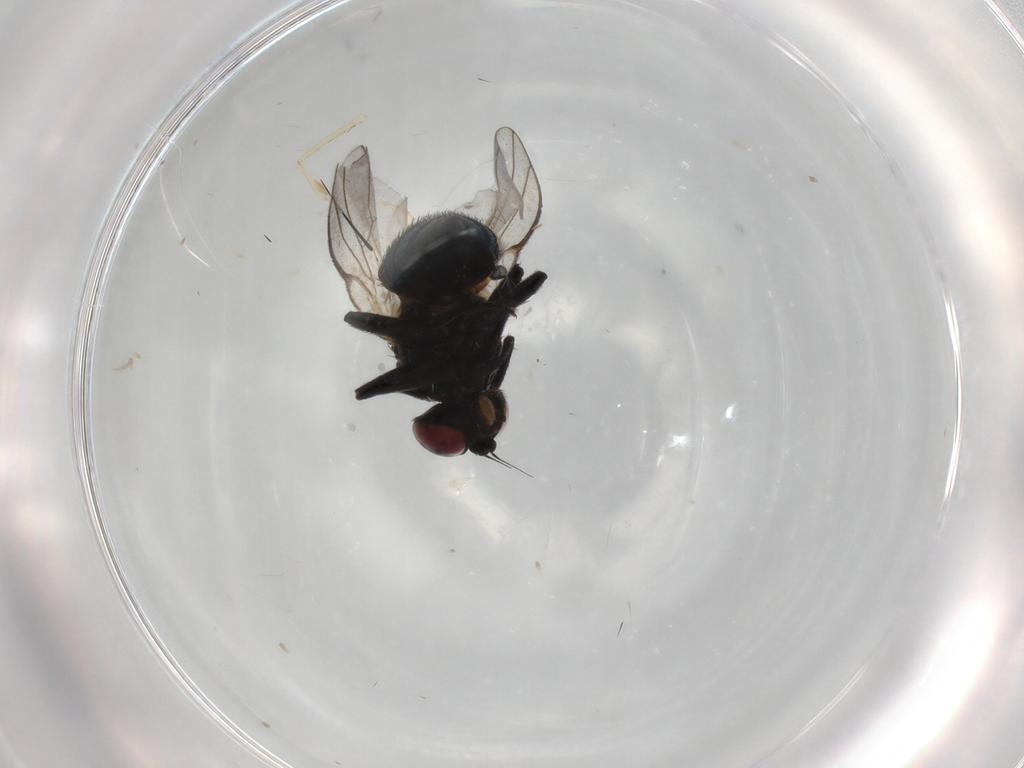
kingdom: Animalia
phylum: Arthropoda
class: Insecta
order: Diptera
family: Agromyzidae
